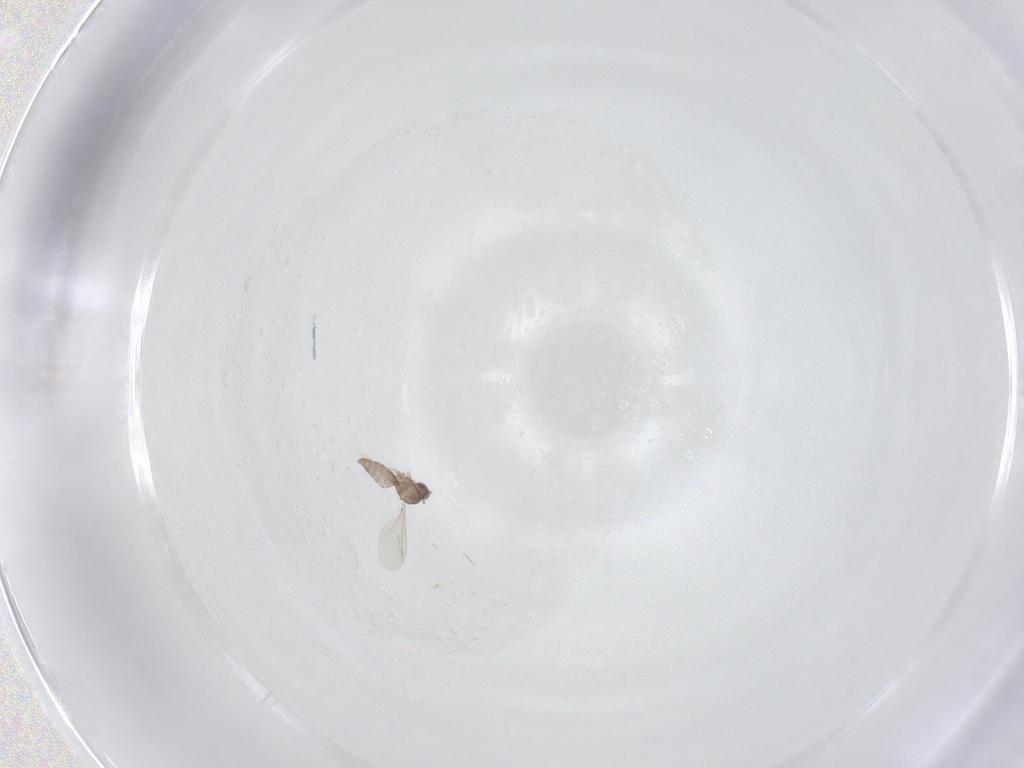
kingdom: Animalia
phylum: Arthropoda
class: Insecta
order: Diptera
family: Cecidomyiidae
